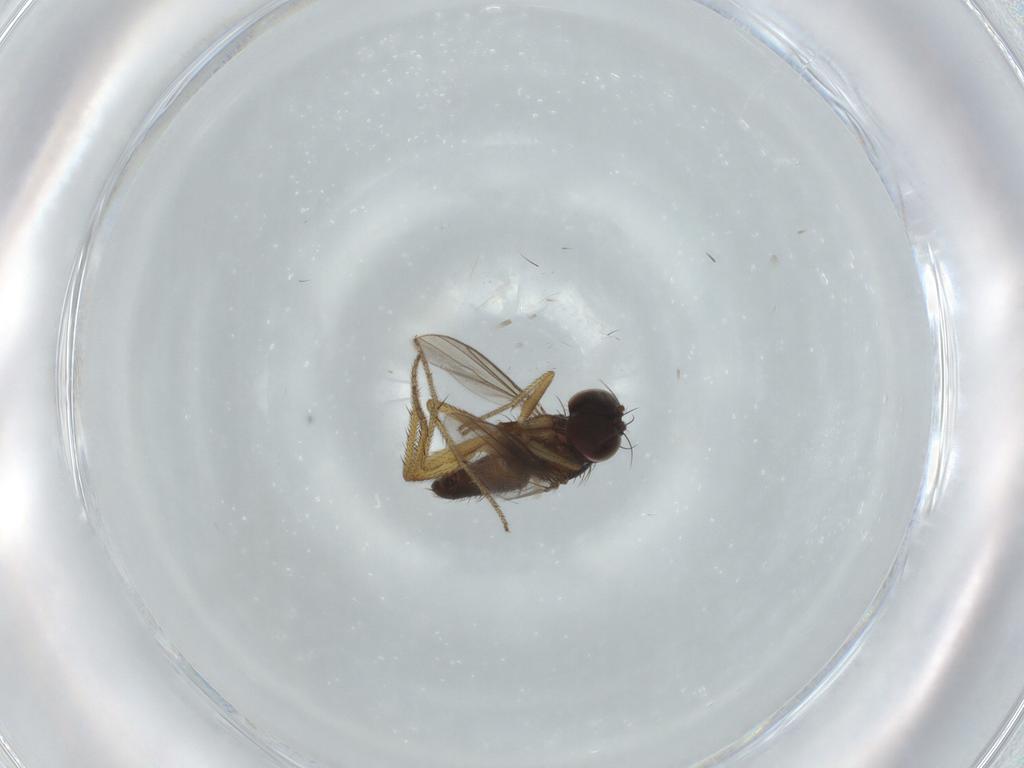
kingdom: Animalia
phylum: Arthropoda
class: Insecta
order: Diptera
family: Dolichopodidae
